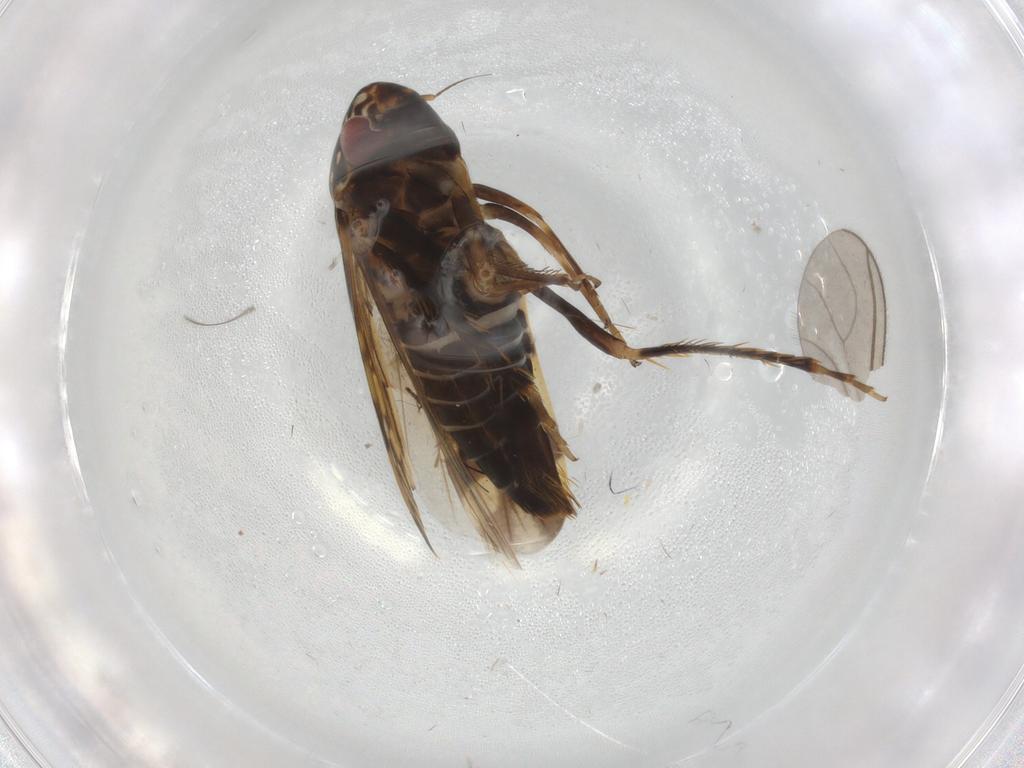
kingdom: Animalia
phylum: Arthropoda
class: Insecta
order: Hemiptera
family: Cicadellidae
